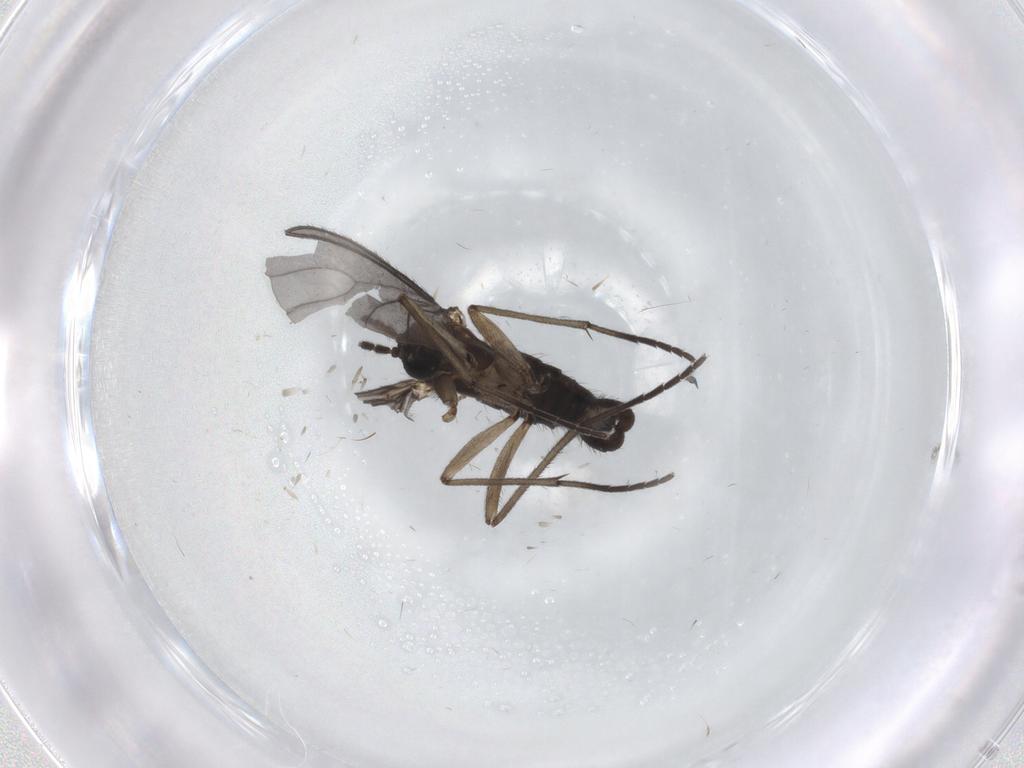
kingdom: Animalia
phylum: Arthropoda
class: Insecta
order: Diptera
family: Sciaridae
